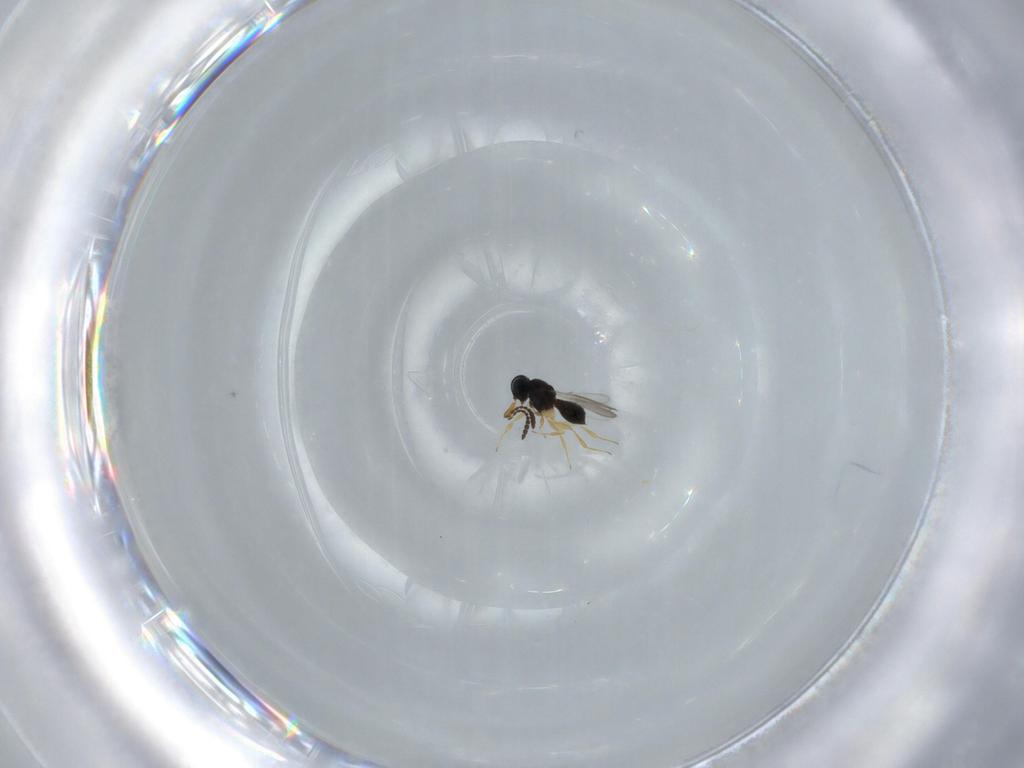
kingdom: Animalia
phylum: Arthropoda
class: Insecta
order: Hymenoptera
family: Scelionidae
